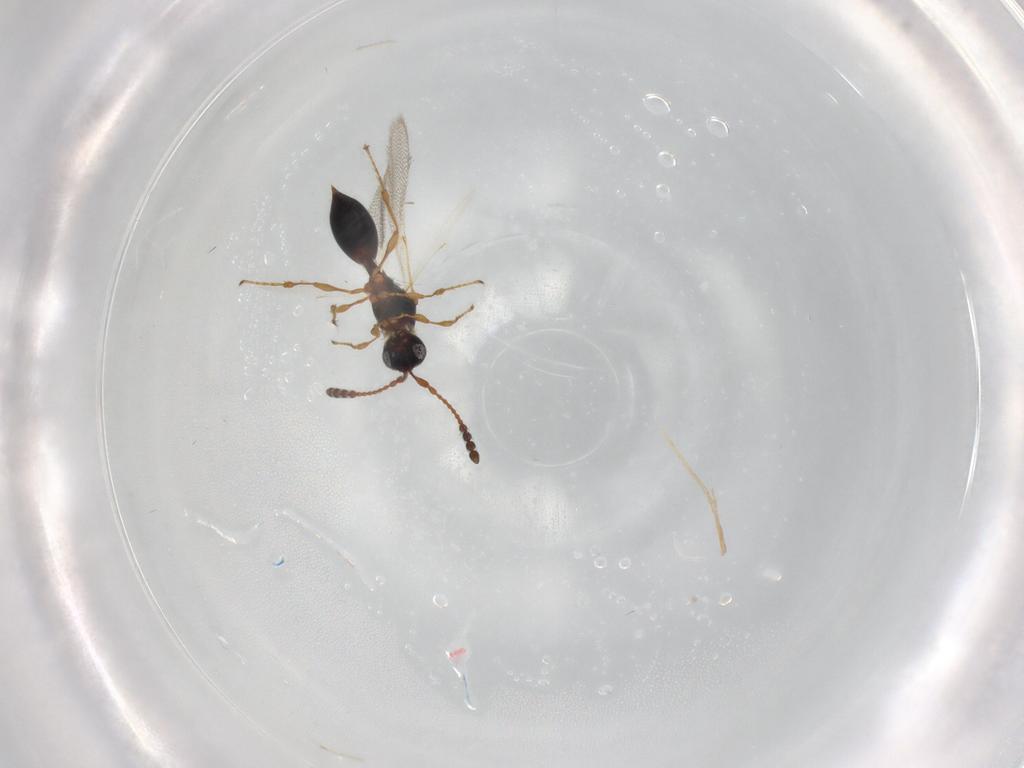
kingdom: Animalia
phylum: Arthropoda
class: Insecta
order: Hymenoptera
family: Diapriidae
